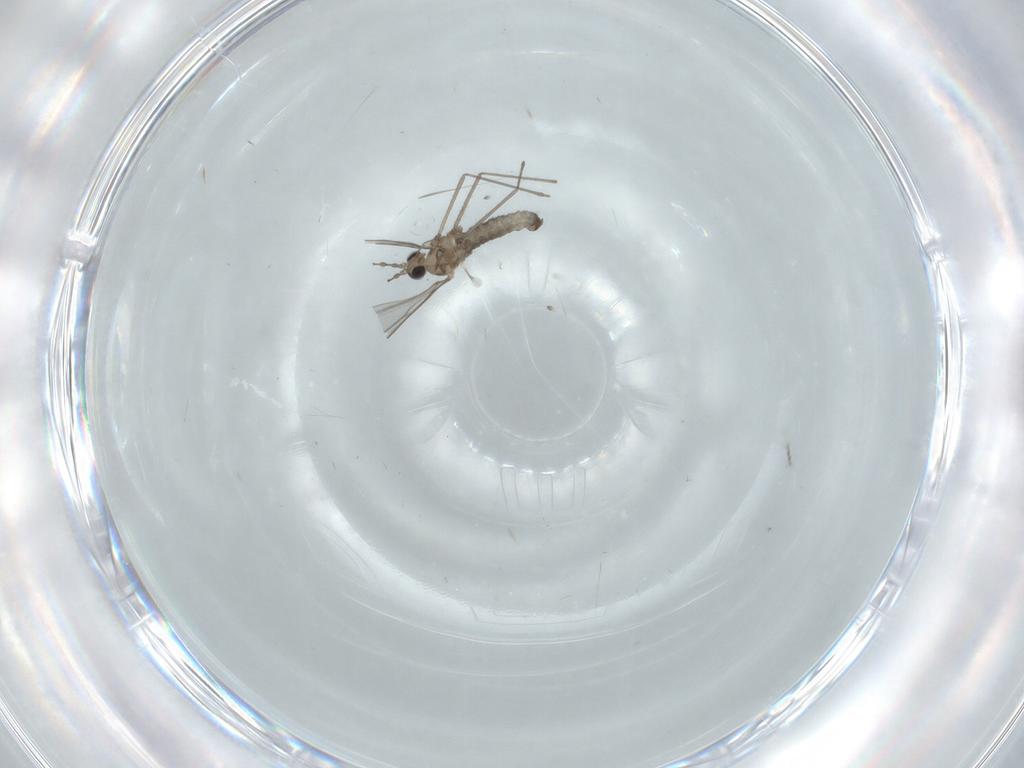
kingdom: Animalia
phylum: Arthropoda
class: Insecta
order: Diptera
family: Cecidomyiidae
